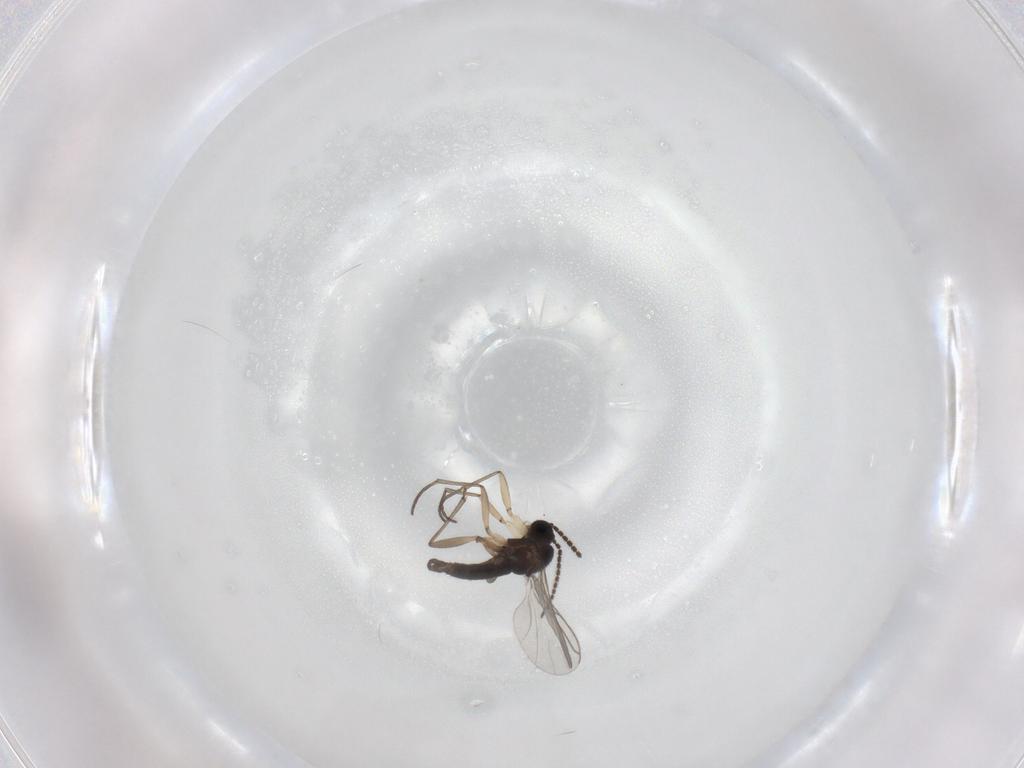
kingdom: Animalia
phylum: Arthropoda
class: Insecta
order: Diptera
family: Sciaridae
